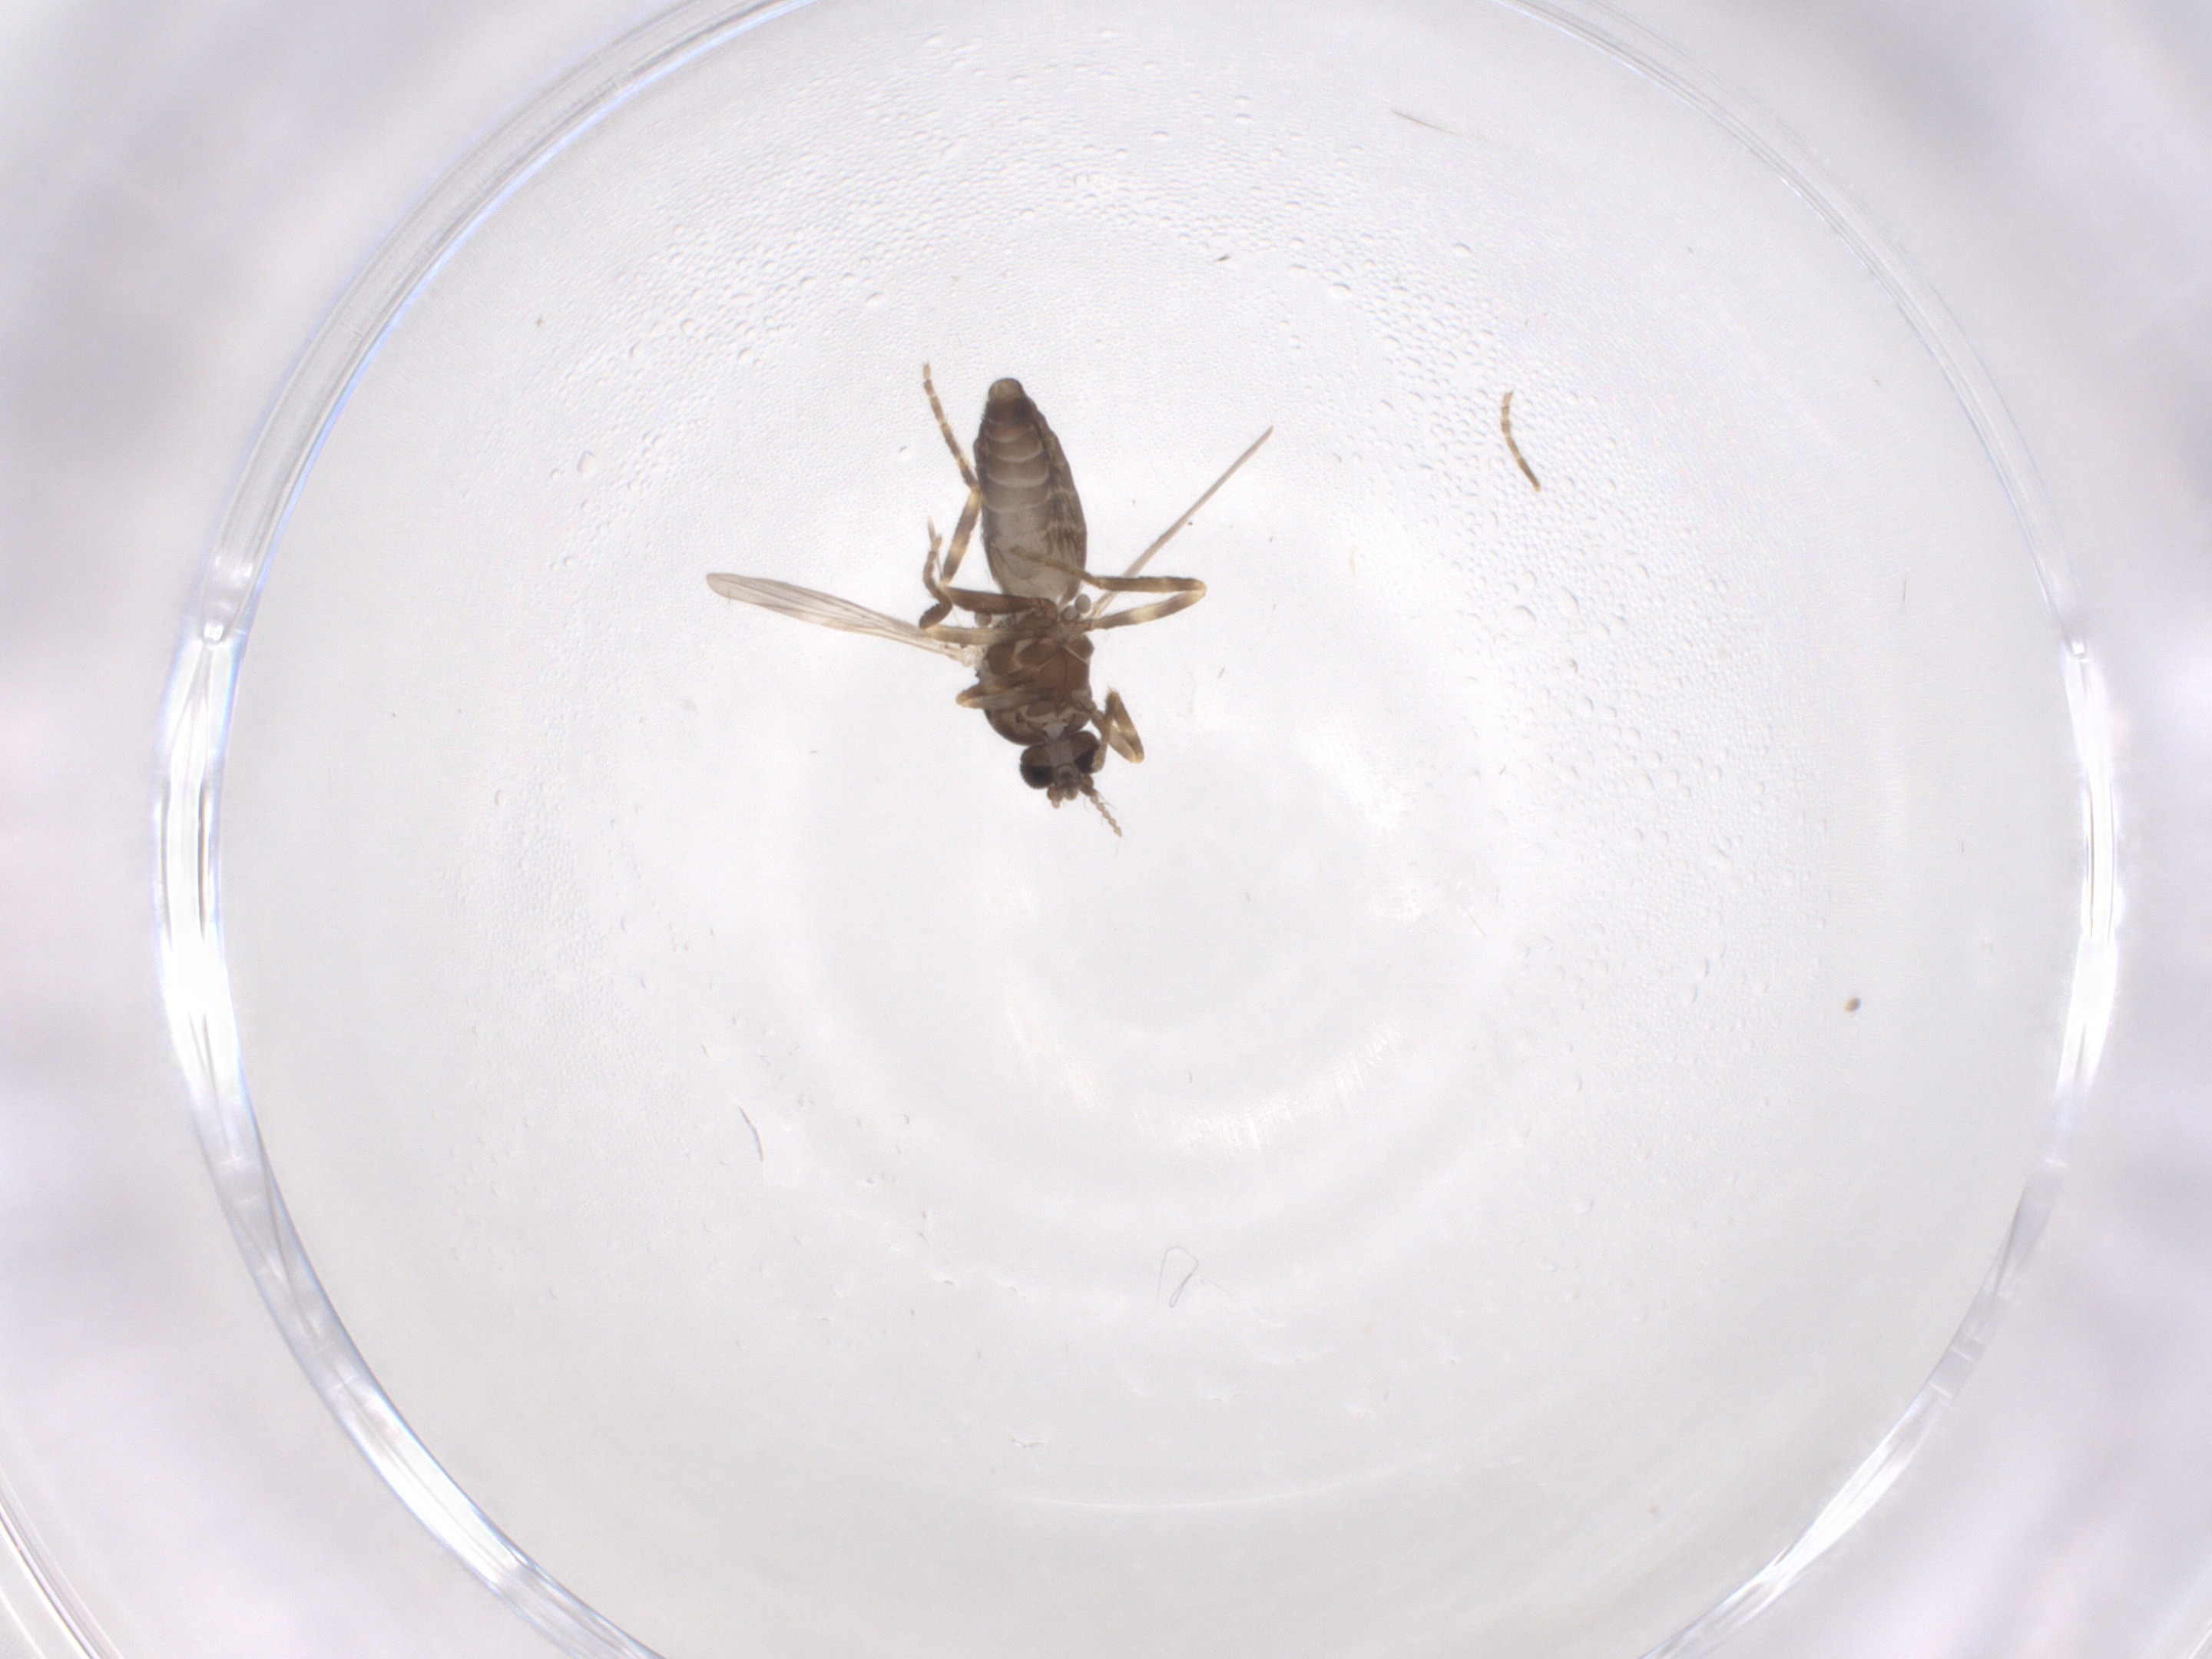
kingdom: Animalia
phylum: Arthropoda
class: Insecta
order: Diptera
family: Ceratopogonidae
